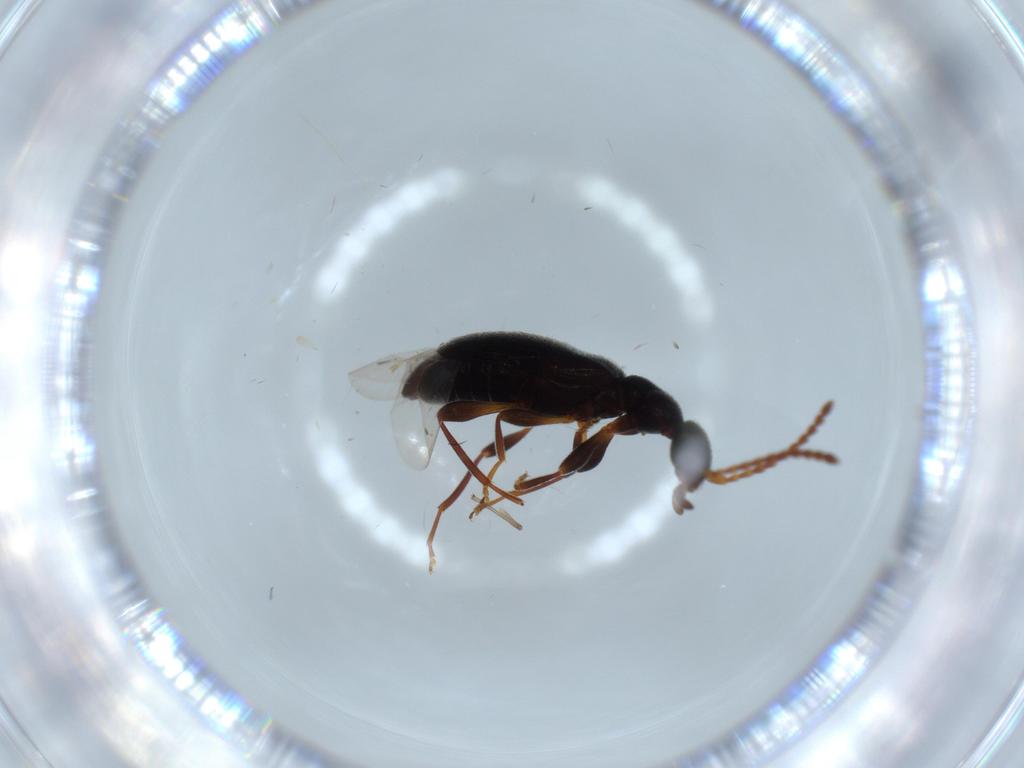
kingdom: Animalia
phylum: Arthropoda
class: Insecta
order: Coleoptera
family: Anthicidae
